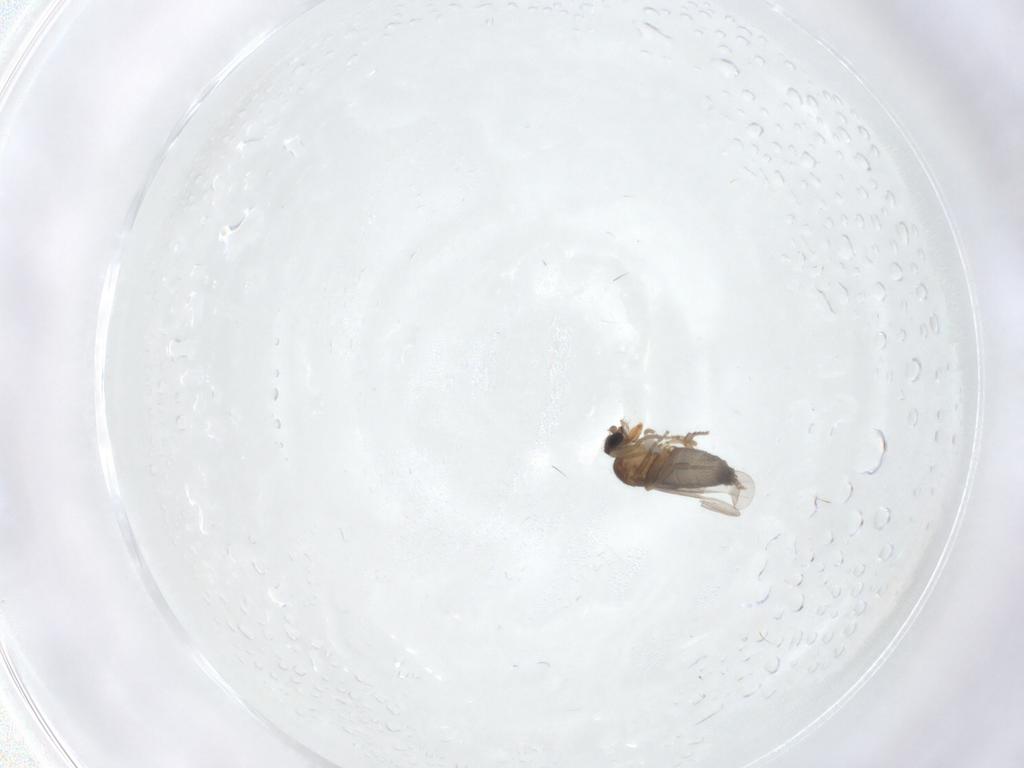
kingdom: Animalia
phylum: Arthropoda
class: Insecta
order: Diptera
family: Phoridae
